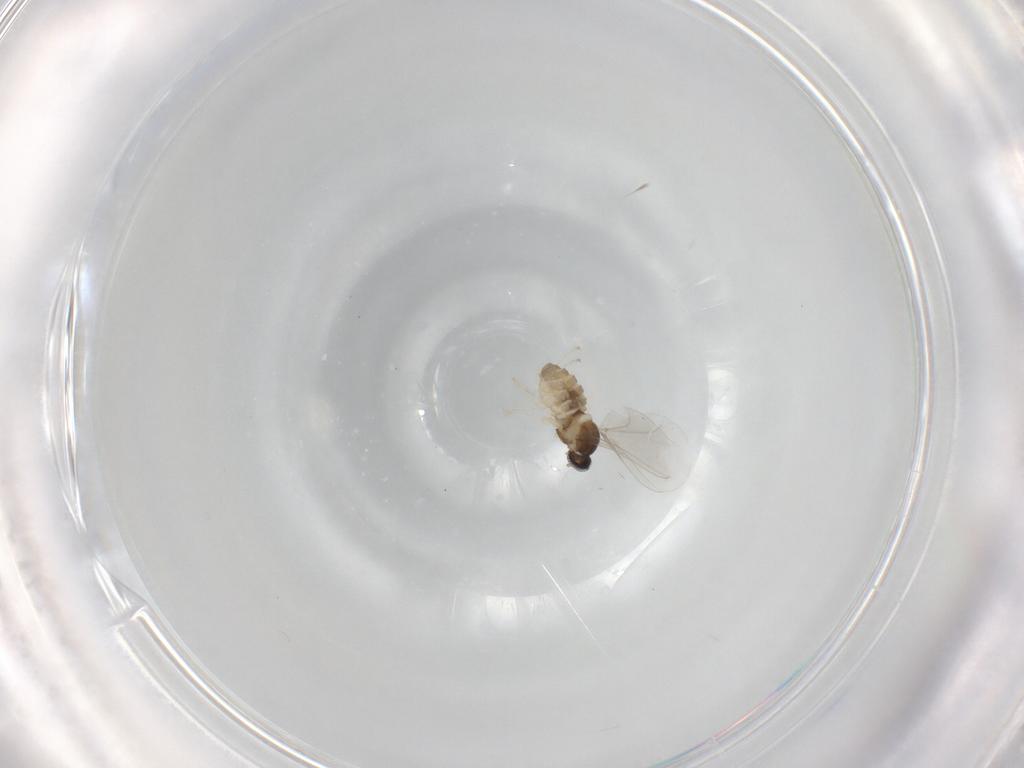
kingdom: Animalia
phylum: Arthropoda
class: Insecta
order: Diptera
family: Cecidomyiidae
